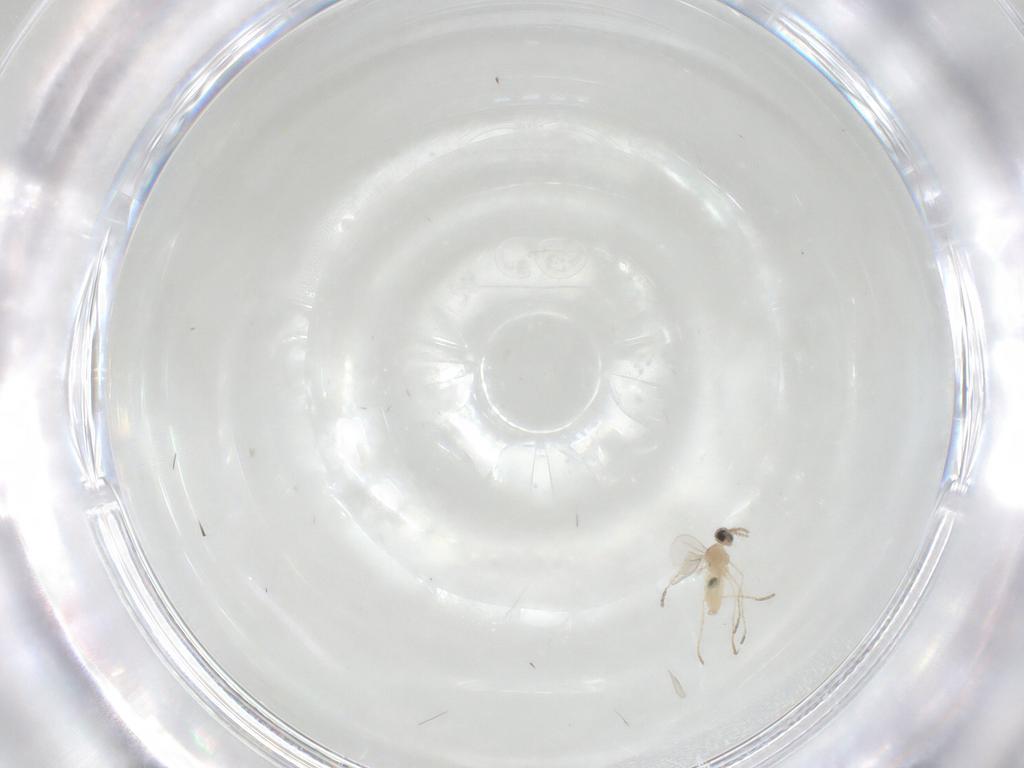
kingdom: Animalia
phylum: Arthropoda
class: Insecta
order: Diptera
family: Cecidomyiidae
